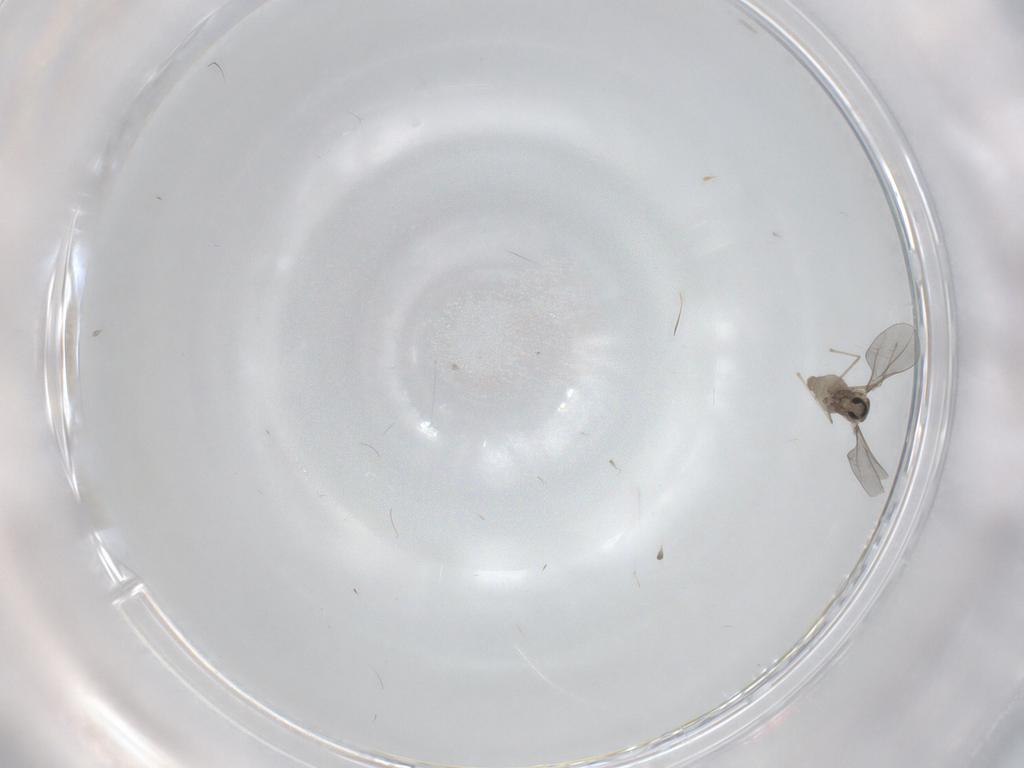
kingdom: Animalia
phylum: Arthropoda
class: Insecta
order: Diptera
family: Cecidomyiidae
